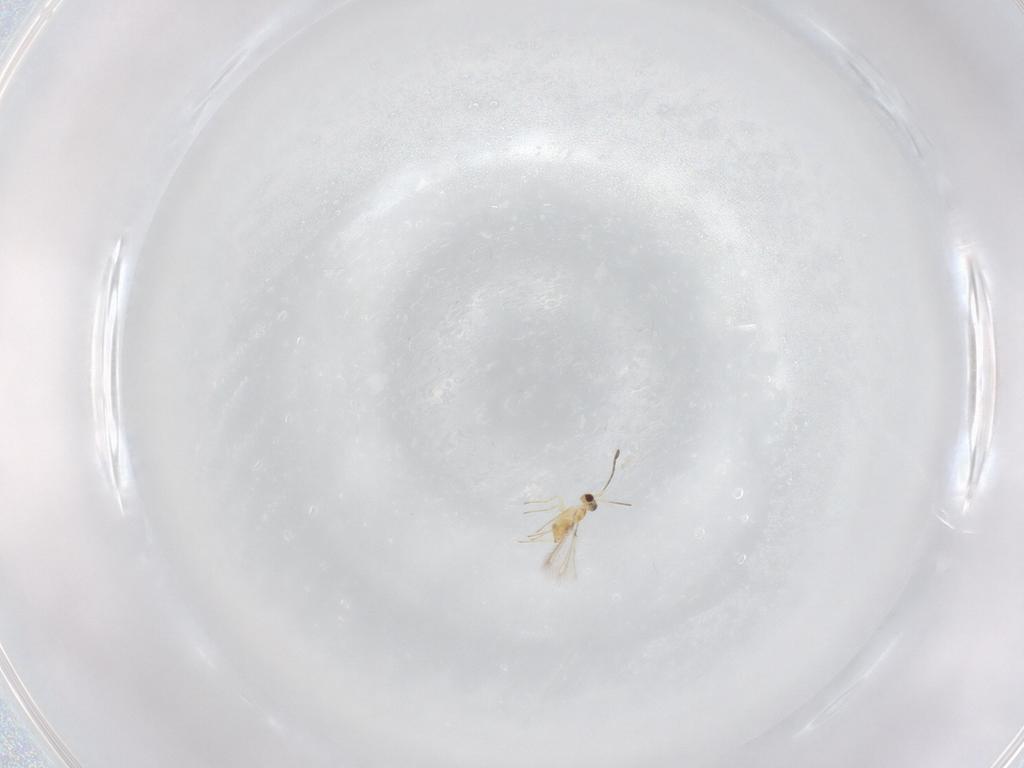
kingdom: Animalia
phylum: Arthropoda
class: Insecta
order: Hymenoptera
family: Mymaridae
